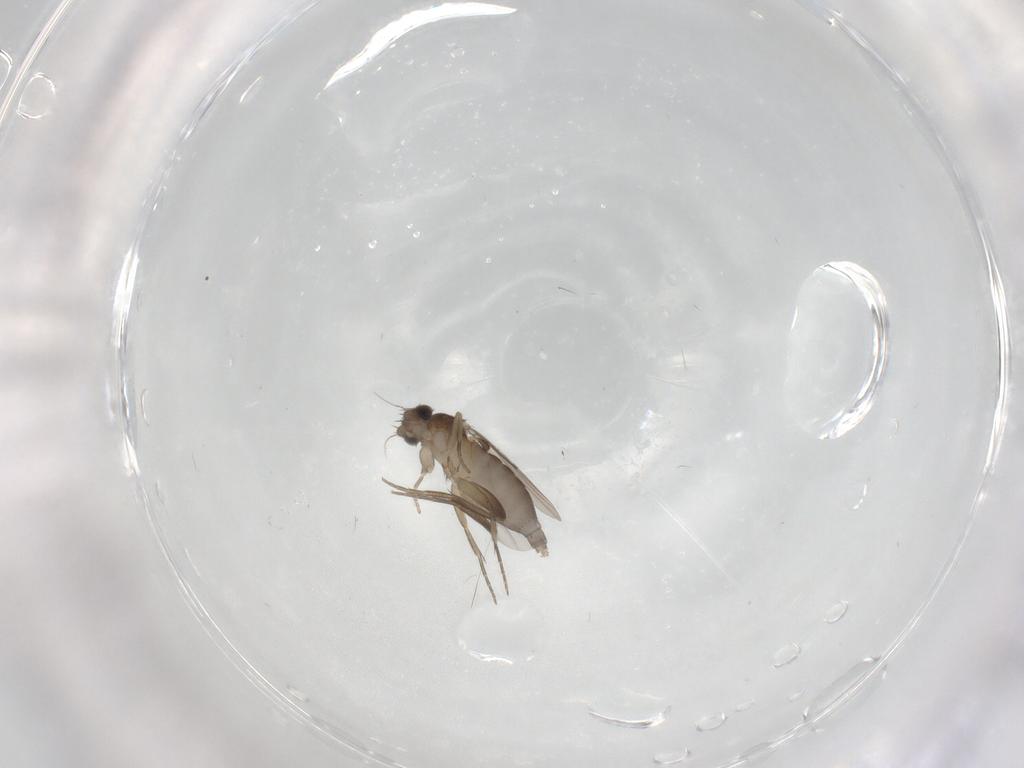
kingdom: Animalia
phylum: Arthropoda
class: Insecta
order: Diptera
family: Phoridae
